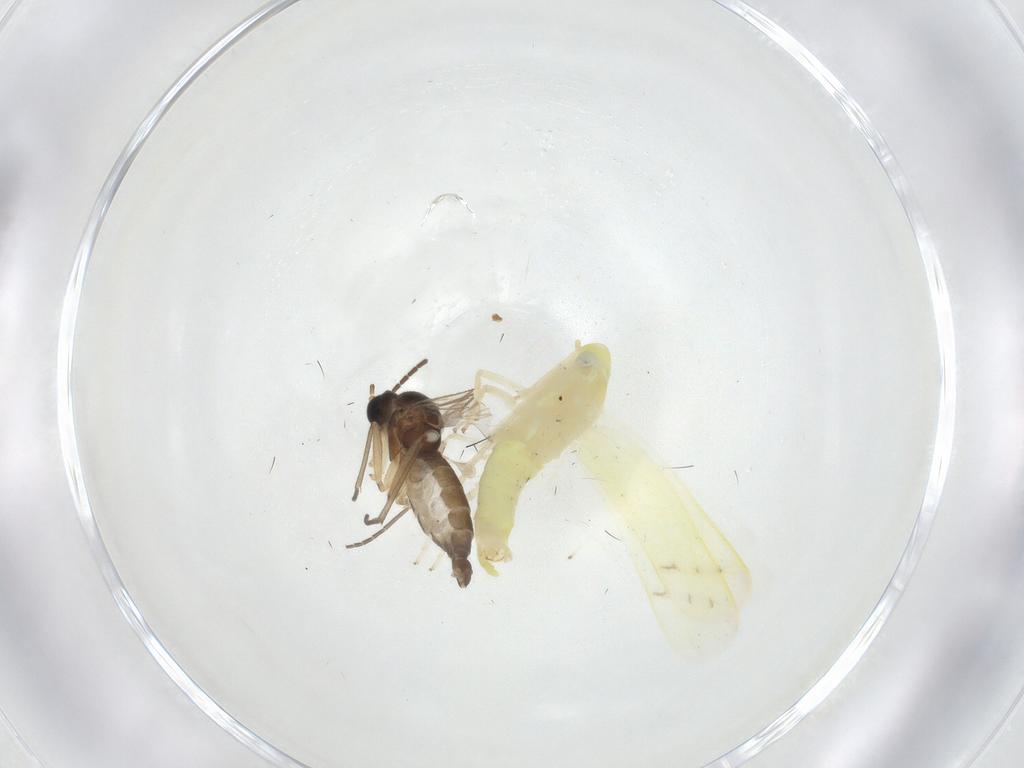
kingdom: Animalia
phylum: Arthropoda
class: Insecta
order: Hemiptera
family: Cicadellidae
